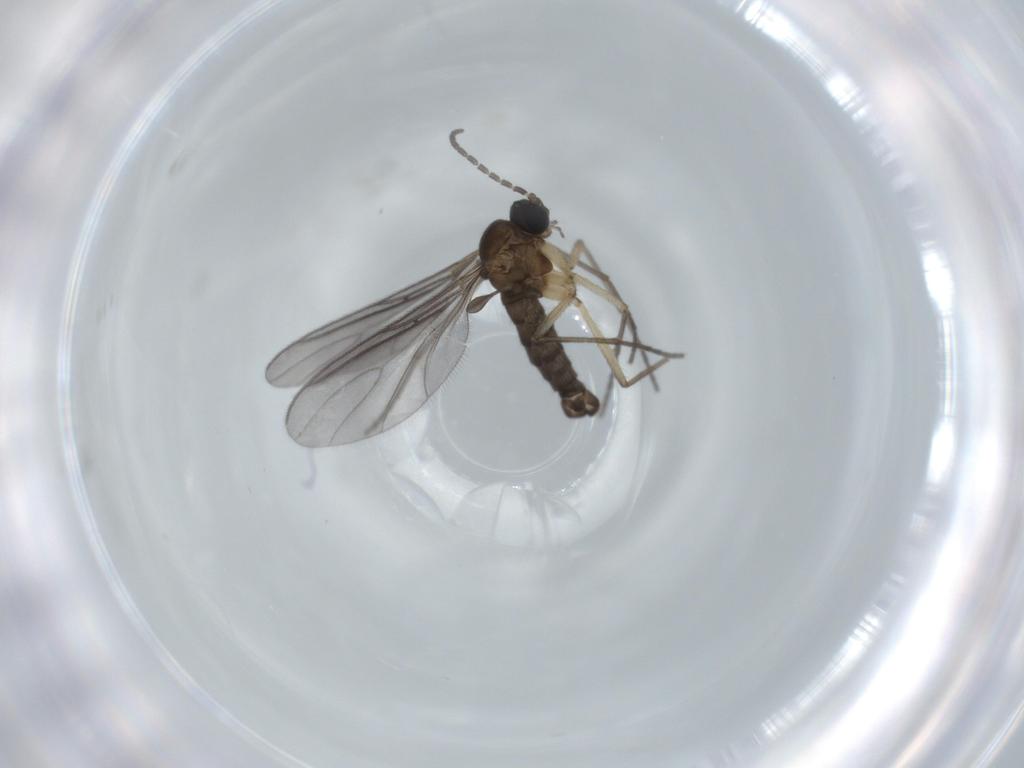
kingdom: Animalia
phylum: Arthropoda
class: Insecta
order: Diptera
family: Sciaridae
